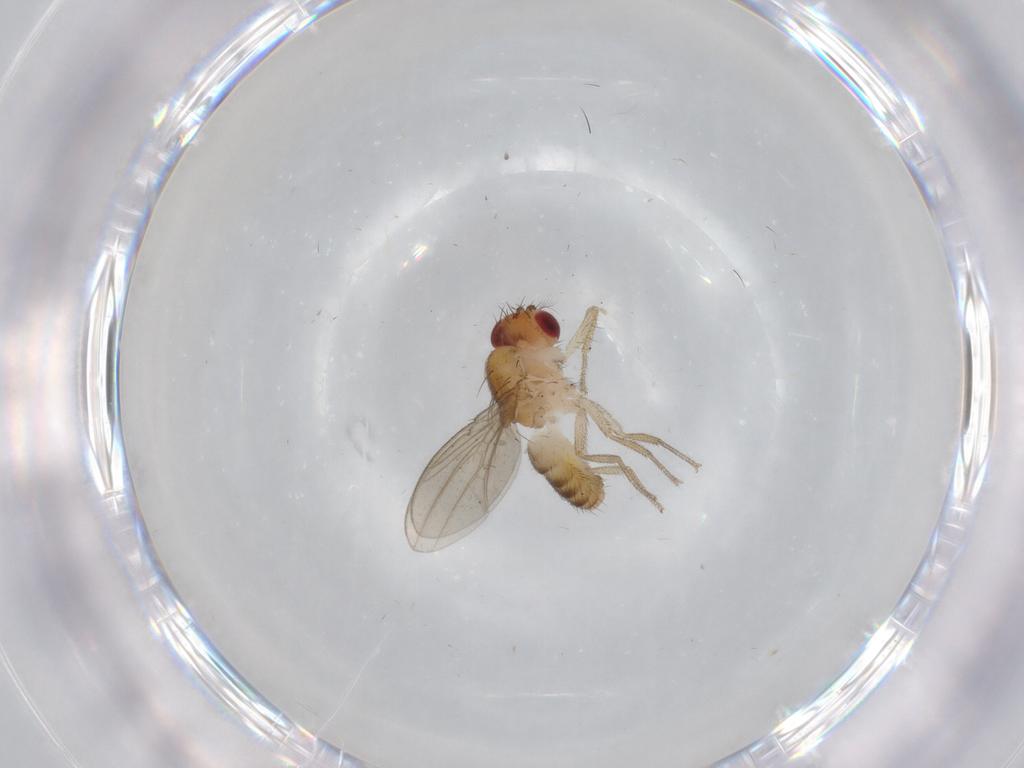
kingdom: Animalia
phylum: Arthropoda
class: Insecta
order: Diptera
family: Drosophilidae
